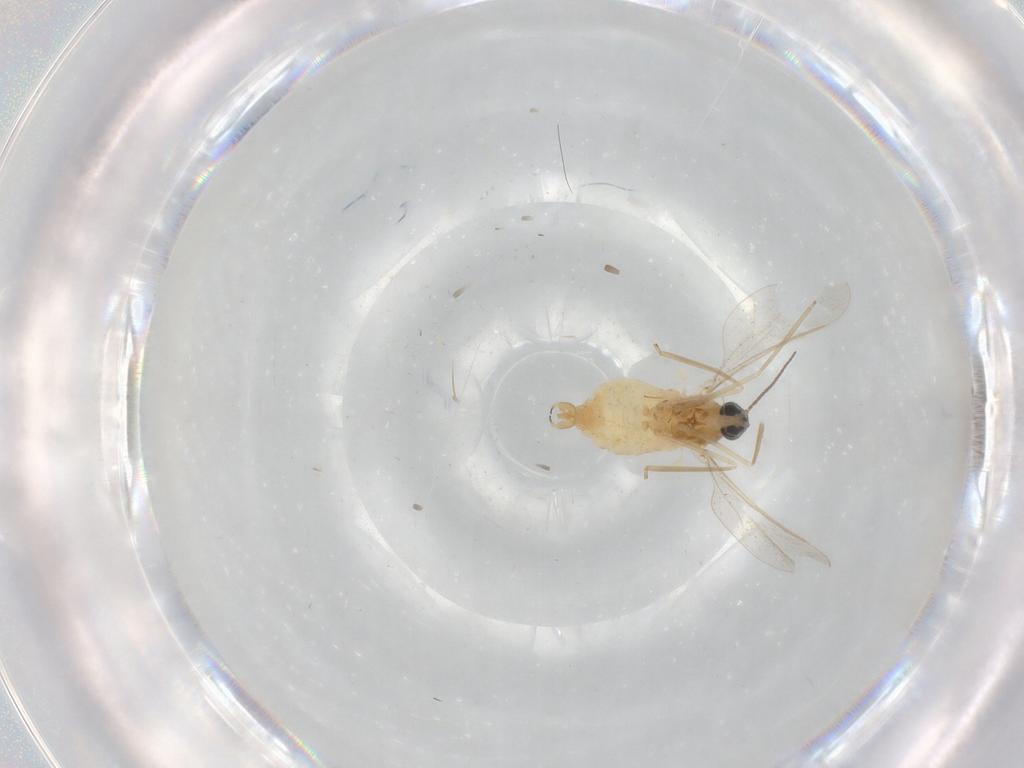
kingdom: Animalia
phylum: Arthropoda
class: Insecta
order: Diptera
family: Cecidomyiidae
